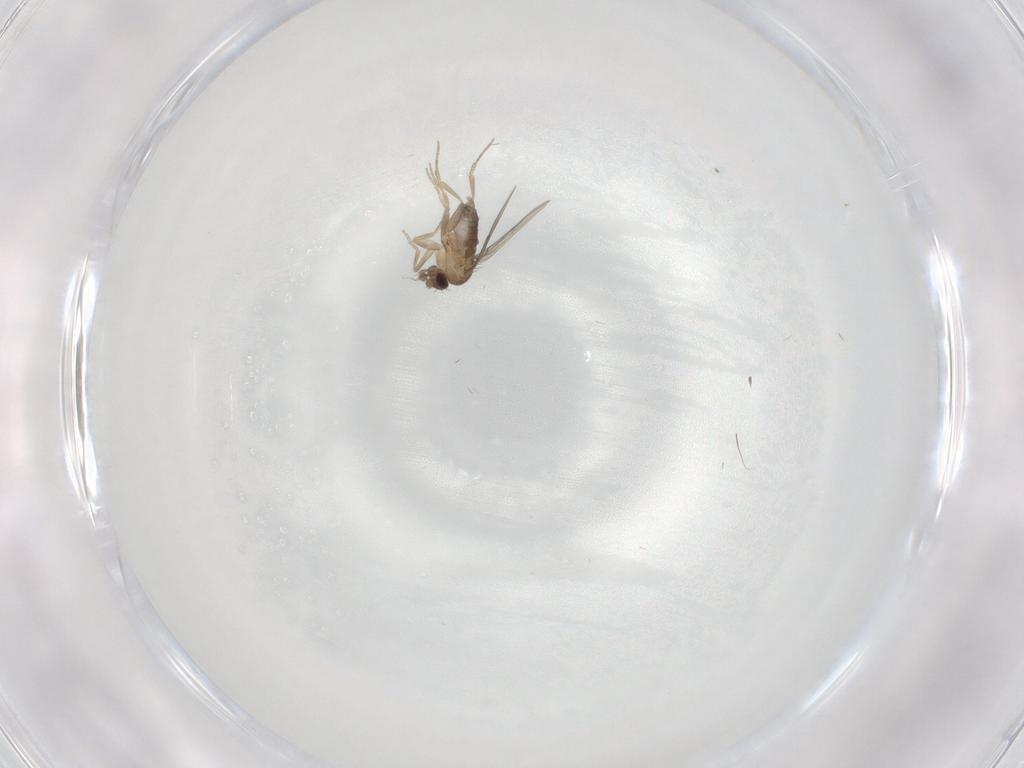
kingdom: Animalia
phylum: Arthropoda
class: Insecta
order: Diptera
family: Phoridae
